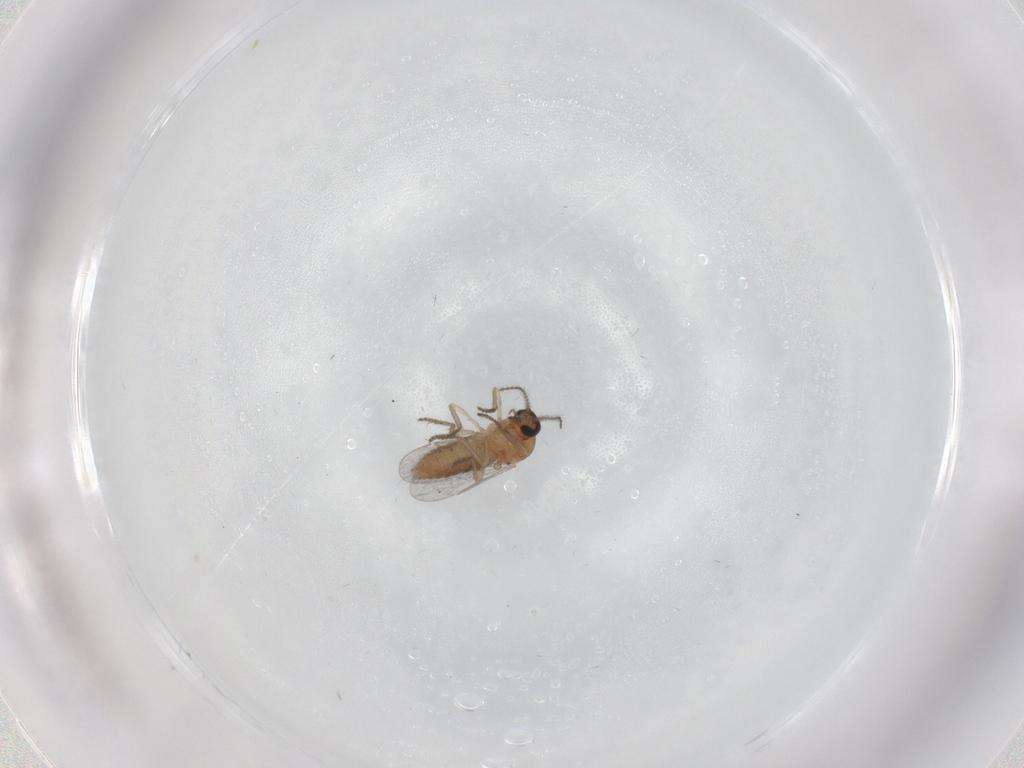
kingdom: Animalia
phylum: Arthropoda
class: Insecta
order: Diptera
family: Ceratopogonidae
